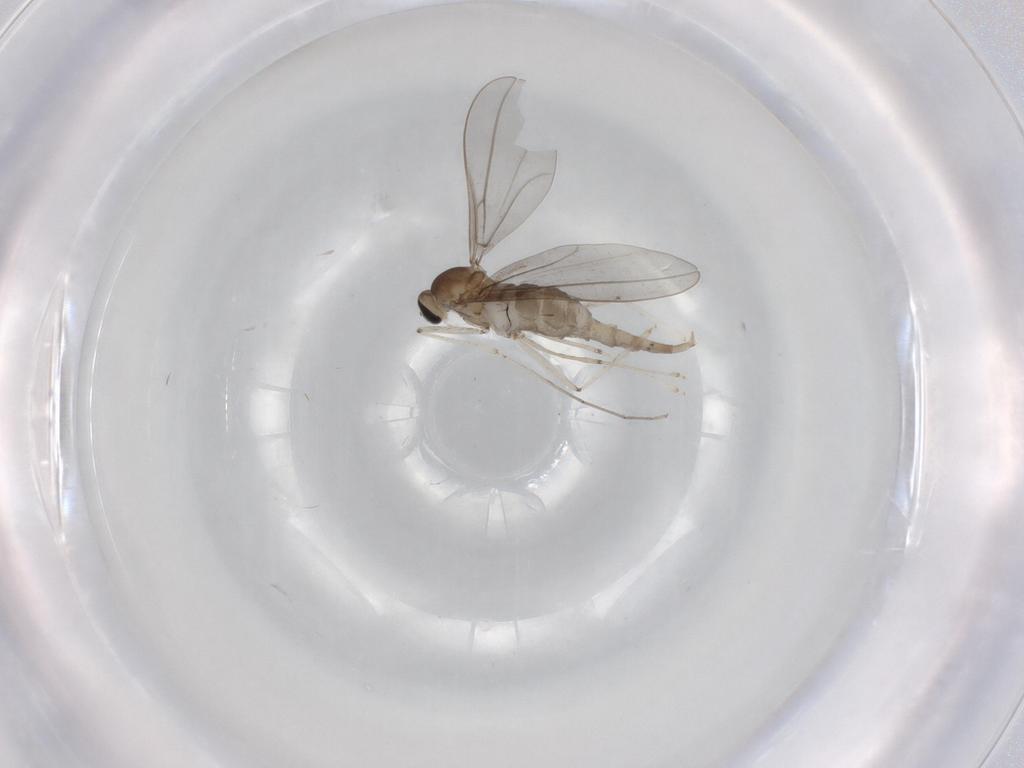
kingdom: Animalia
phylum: Arthropoda
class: Insecta
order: Diptera
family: Cecidomyiidae
